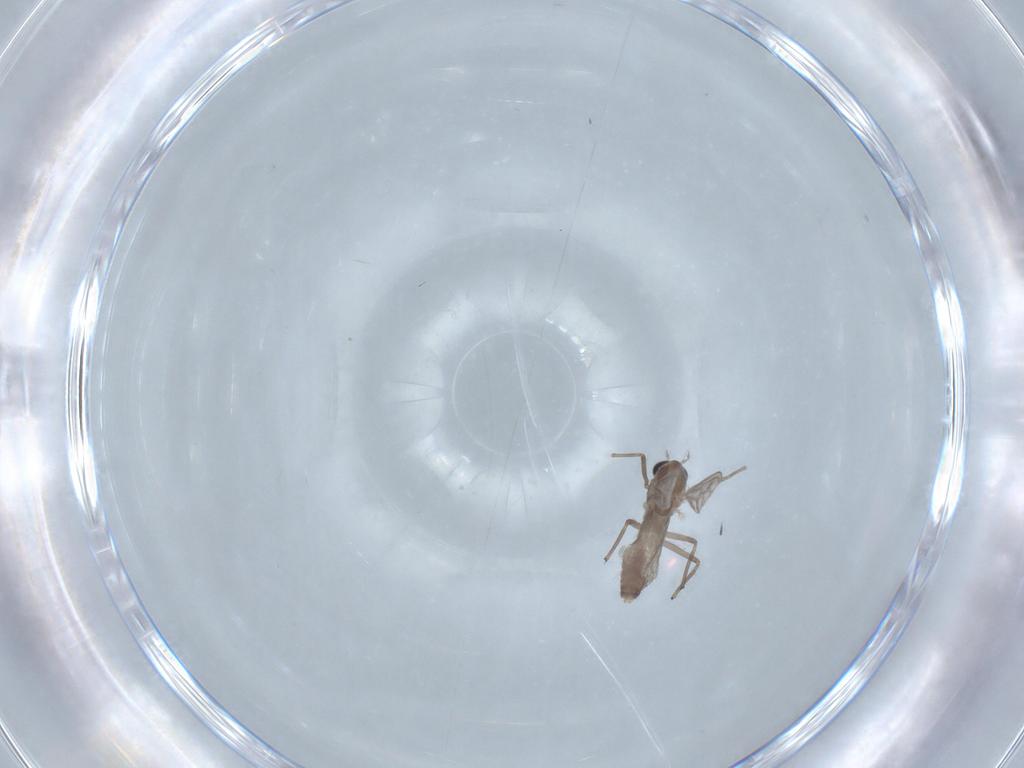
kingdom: Animalia
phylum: Arthropoda
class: Insecta
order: Diptera
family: Chironomidae
